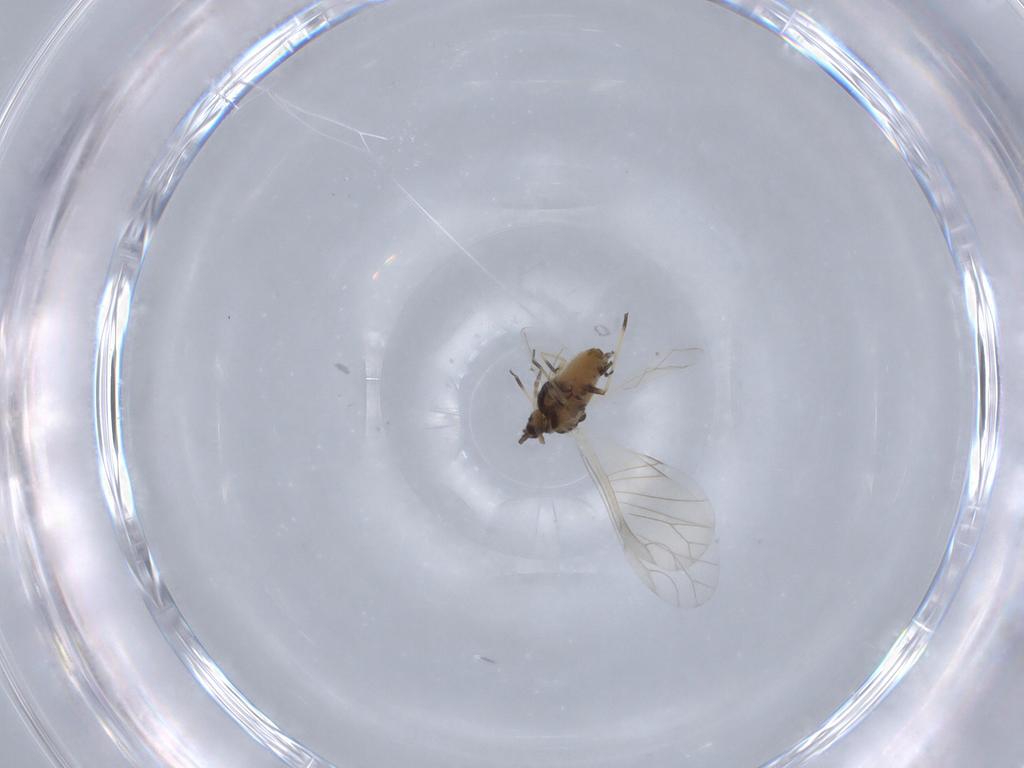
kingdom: Animalia
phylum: Arthropoda
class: Insecta
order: Hemiptera
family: Aphididae
